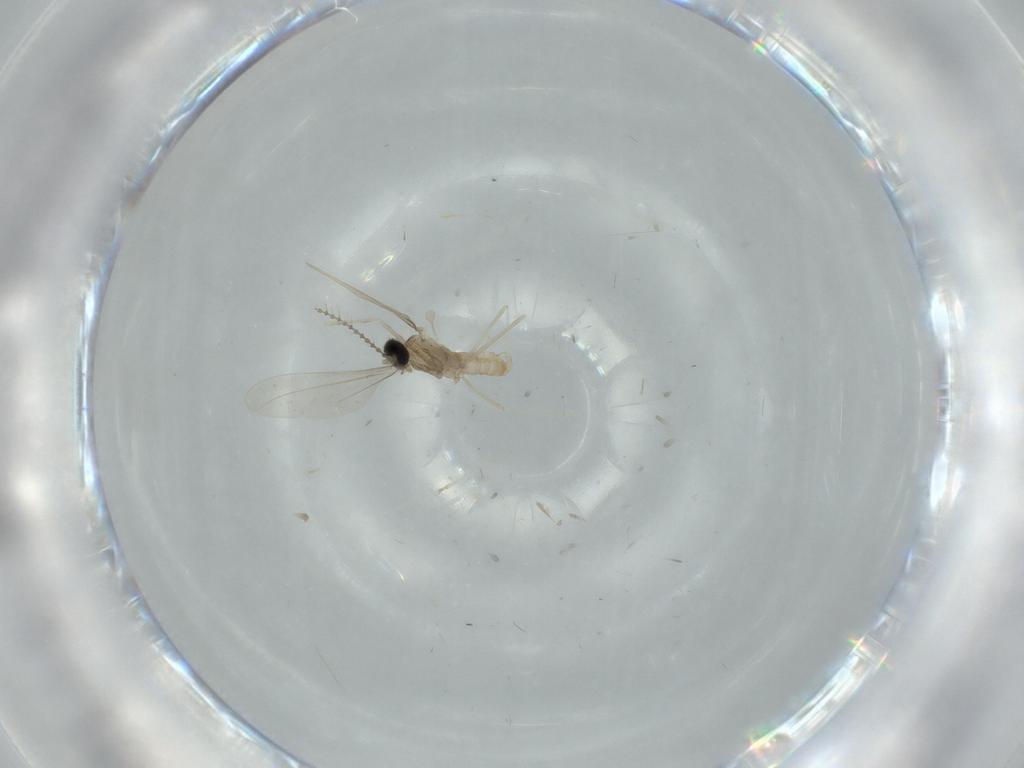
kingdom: Animalia
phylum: Arthropoda
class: Insecta
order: Diptera
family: Cecidomyiidae
